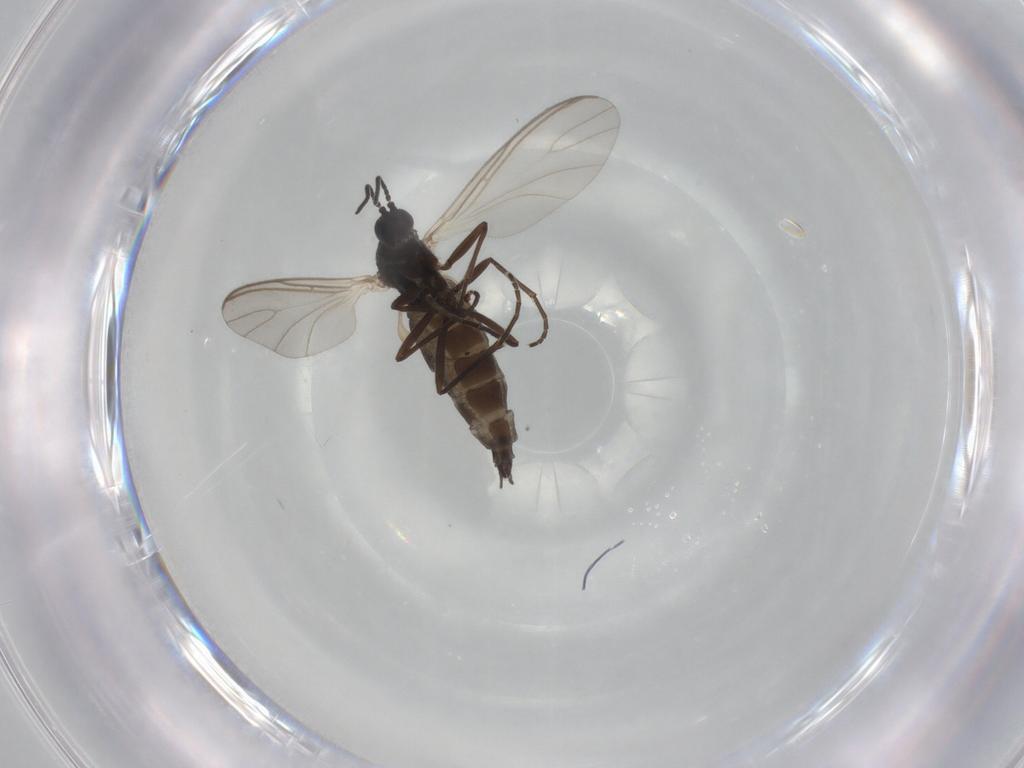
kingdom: Animalia
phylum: Arthropoda
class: Insecta
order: Diptera
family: Sciaridae
